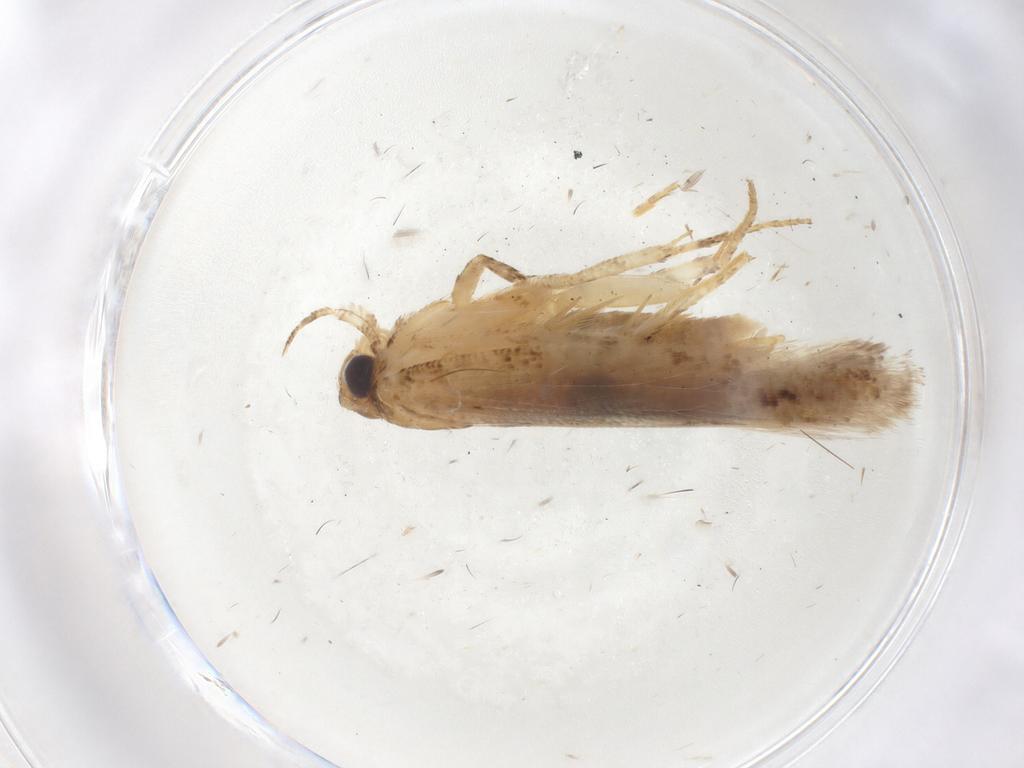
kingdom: Animalia
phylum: Arthropoda
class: Insecta
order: Lepidoptera
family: Gelechiidae
